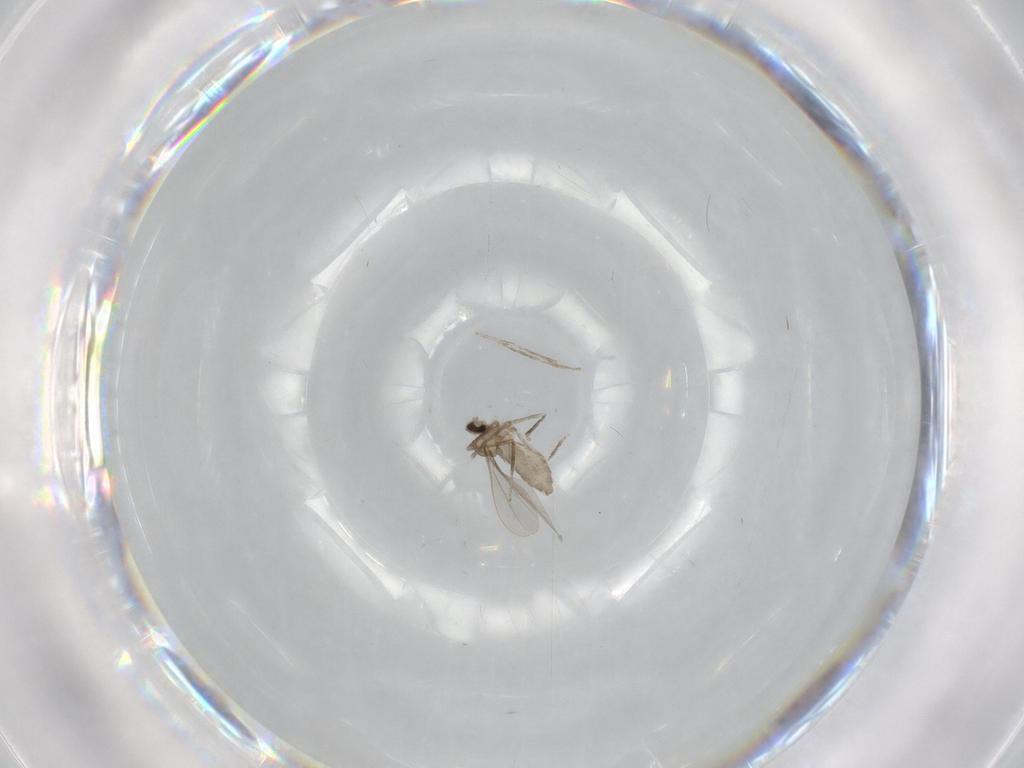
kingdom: Animalia
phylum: Arthropoda
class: Insecta
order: Diptera
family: Cecidomyiidae
